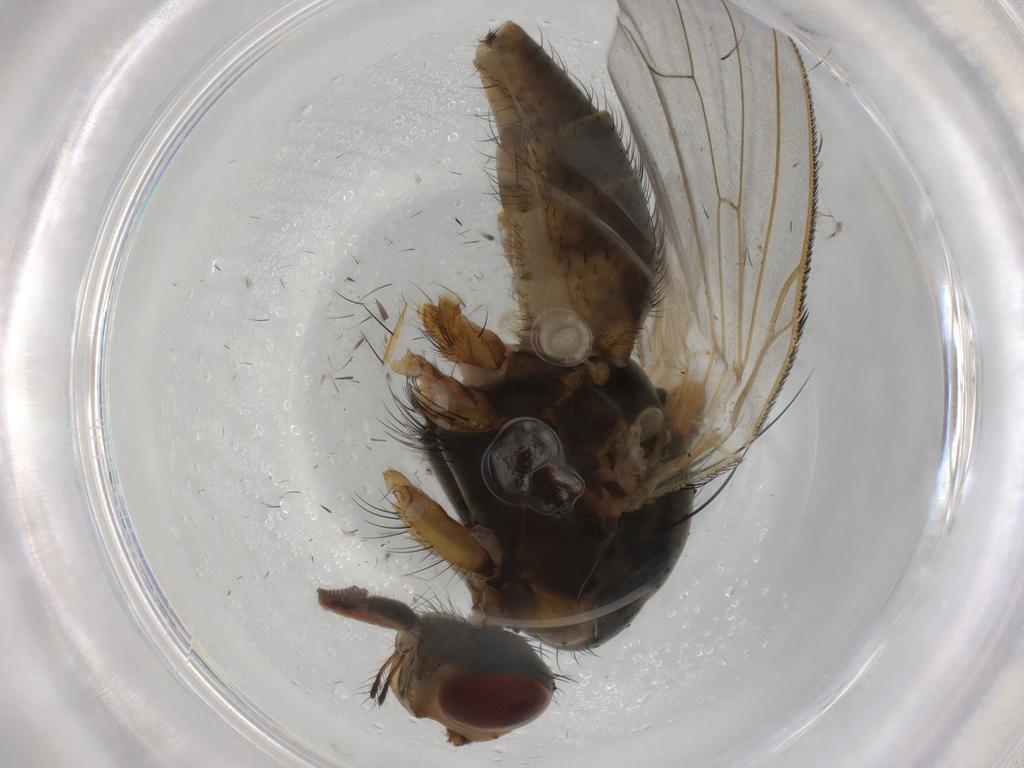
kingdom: Animalia
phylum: Arthropoda
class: Insecta
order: Diptera
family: Anthomyiidae
